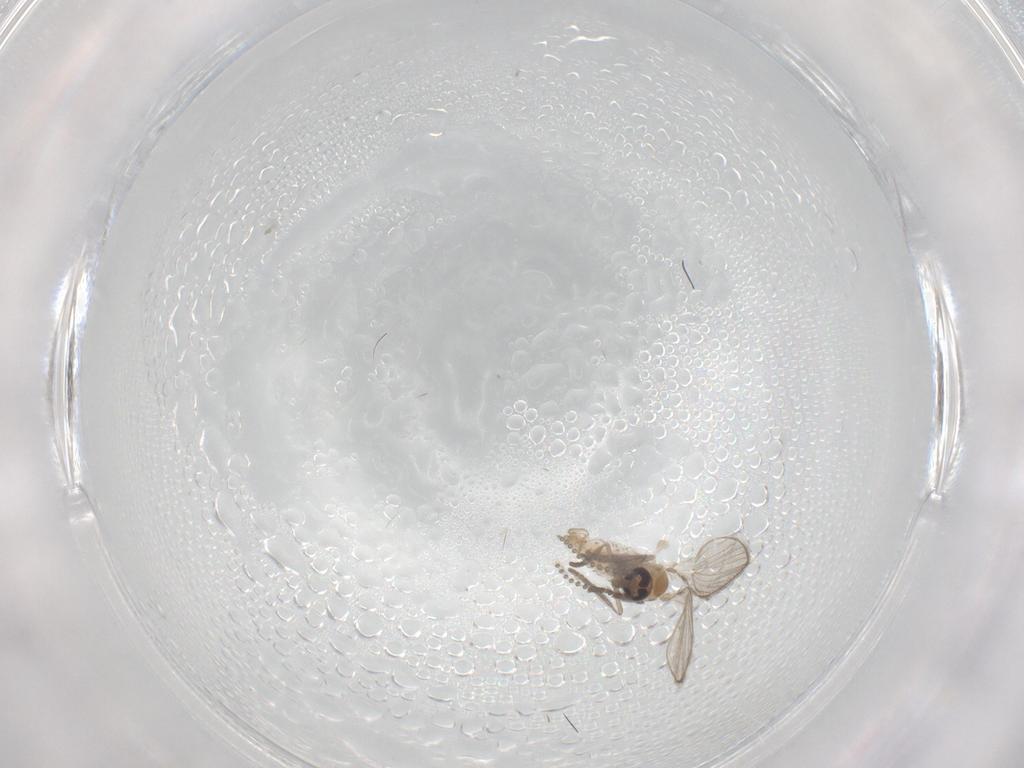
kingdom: Animalia
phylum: Arthropoda
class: Insecta
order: Diptera
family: Psychodidae
